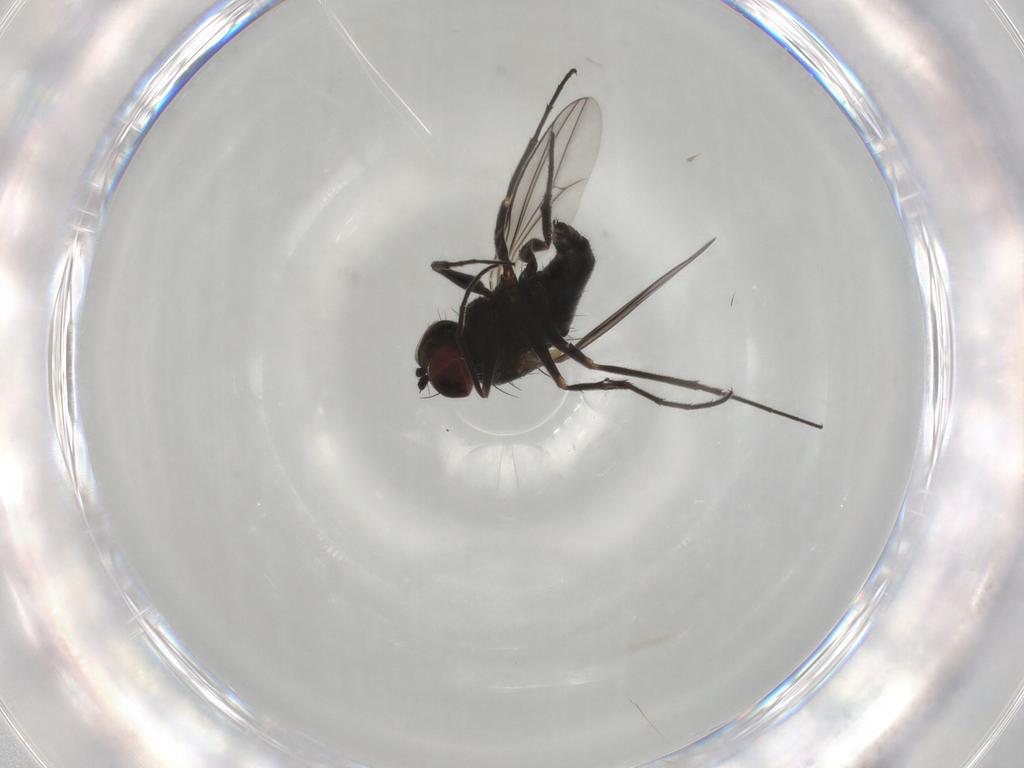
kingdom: Animalia
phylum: Arthropoda
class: Insecta
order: Diptera
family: Dolichopodidae
